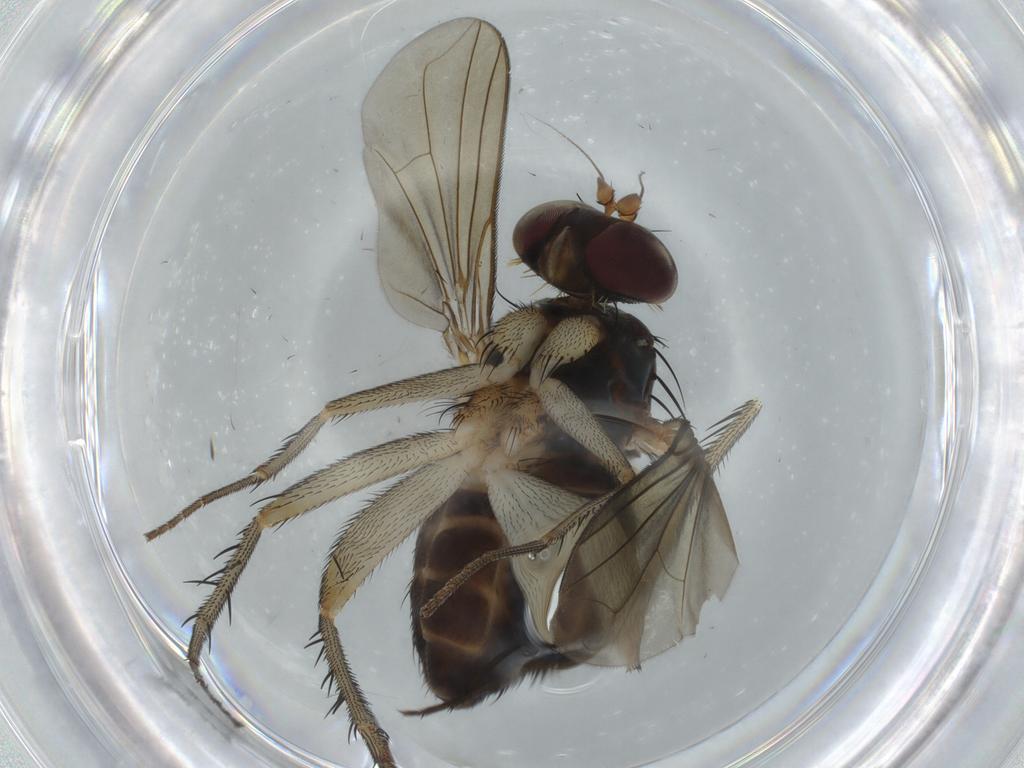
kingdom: Animalia
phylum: Arthropoda
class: Insecta
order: Diptera
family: Dolichopodidae
